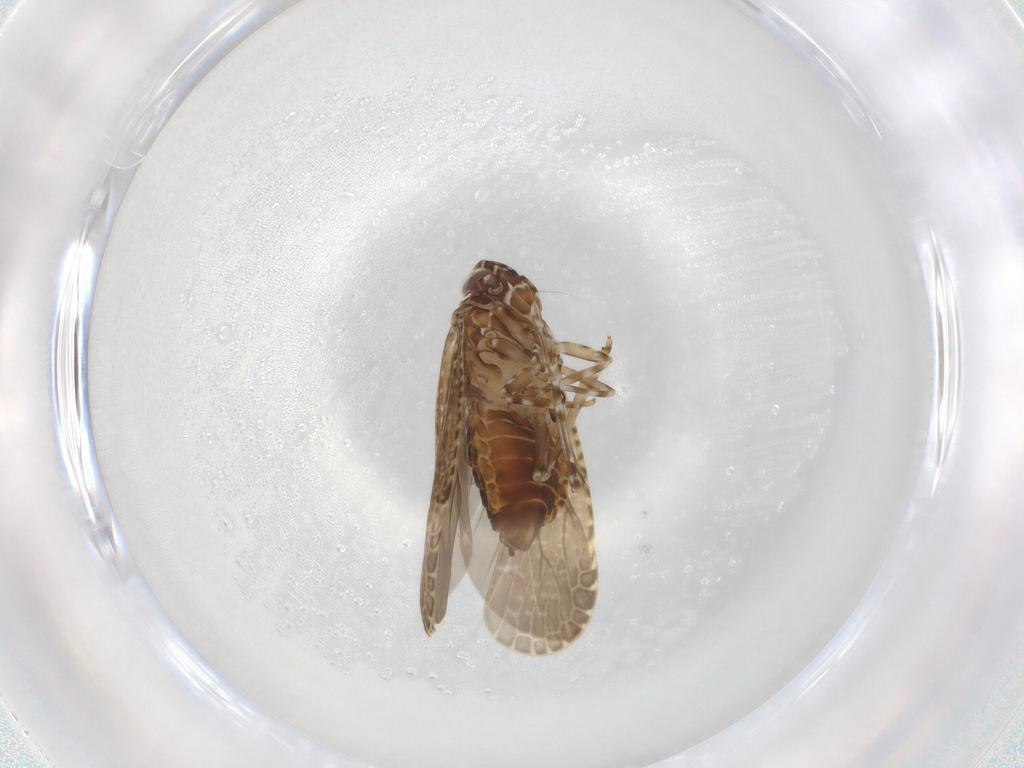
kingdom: Animalia
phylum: Arthropoda
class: Insecta
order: Hemiptera
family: Achilidae
